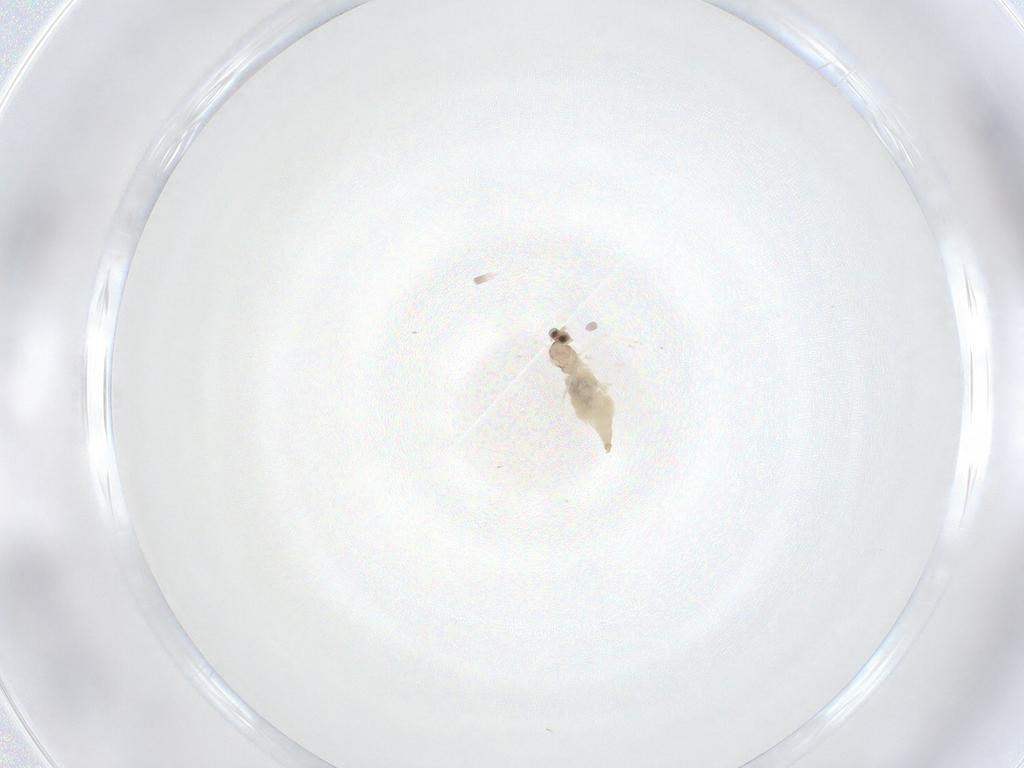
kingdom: Animalia
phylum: Arthropoda
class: Insecta
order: Diptera
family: Cecidomyiidae
